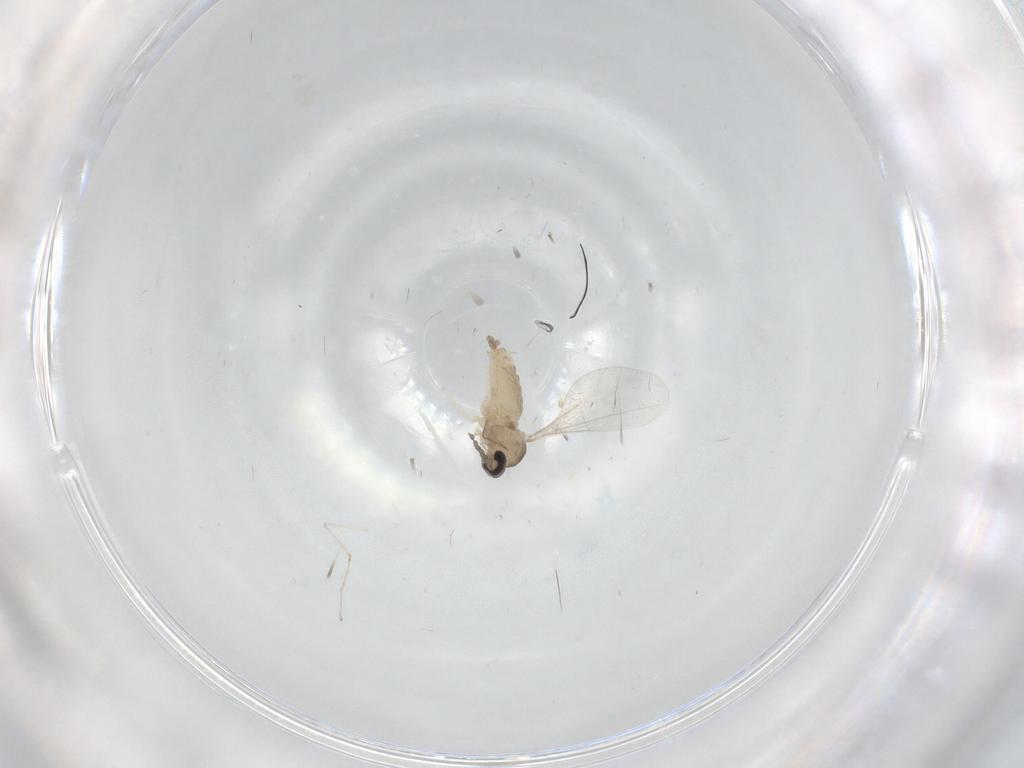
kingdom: Animalia
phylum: Arthropoda
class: Insecta
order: Diptera
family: Cecidomyiidae
